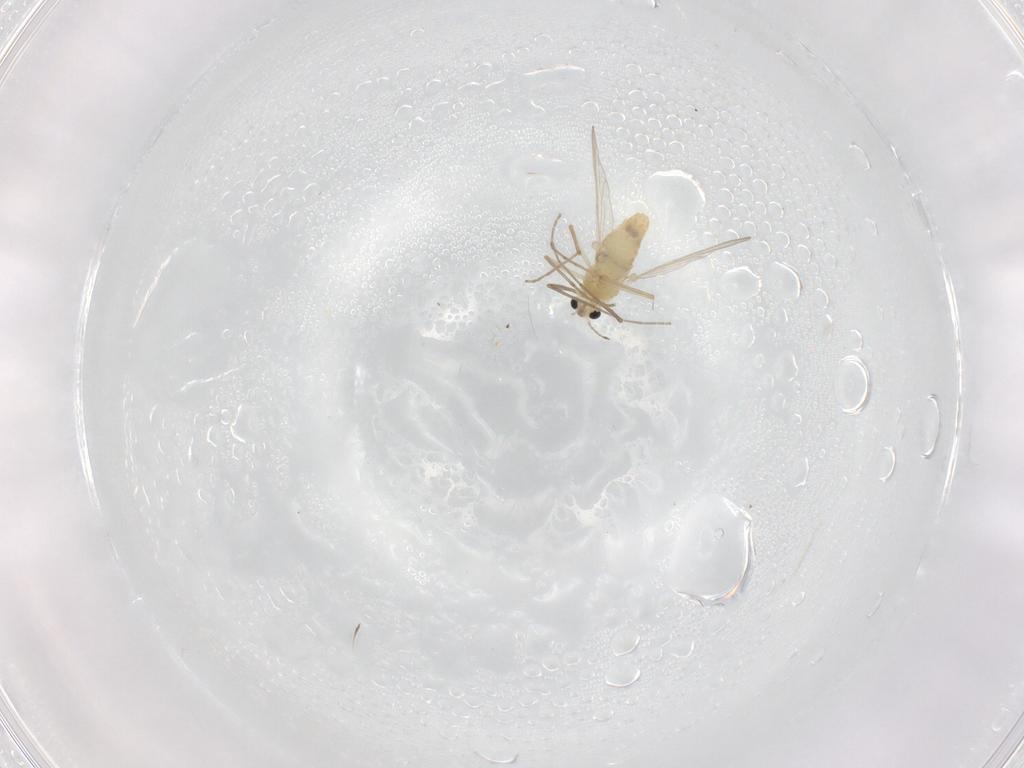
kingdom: Animalia
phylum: Arthropoda
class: Insecta
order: Diptera
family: Chironomidae
